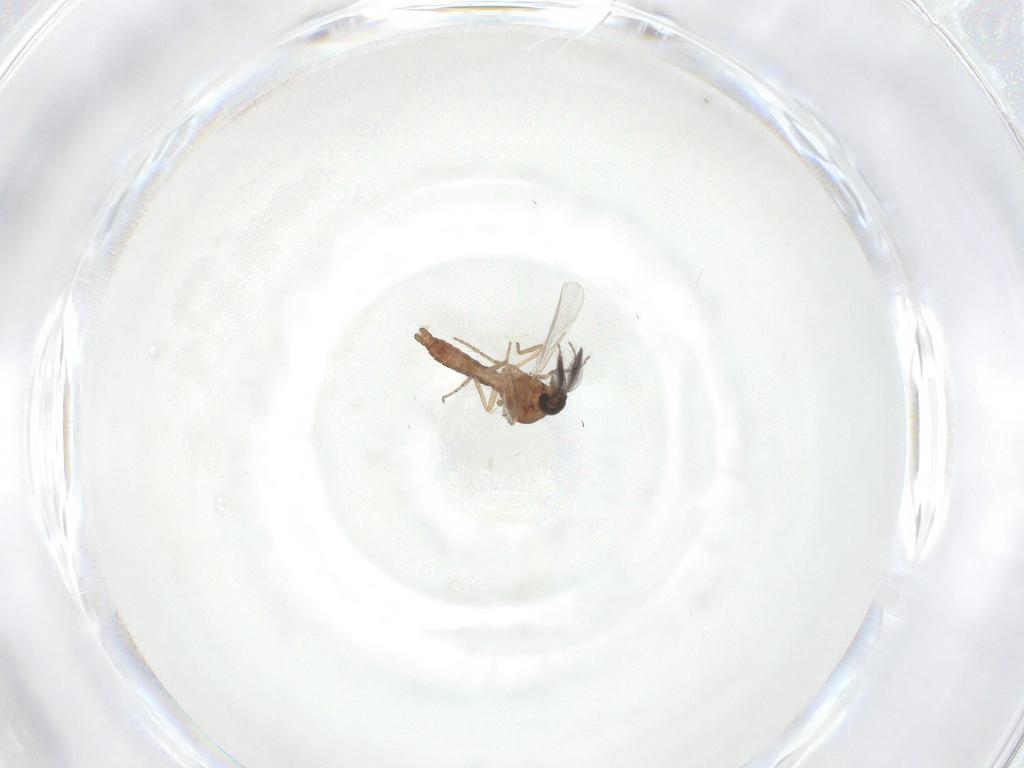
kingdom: Animalia
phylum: Arthropoda
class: Insecta
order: Diptera
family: Ceratopogonidae
